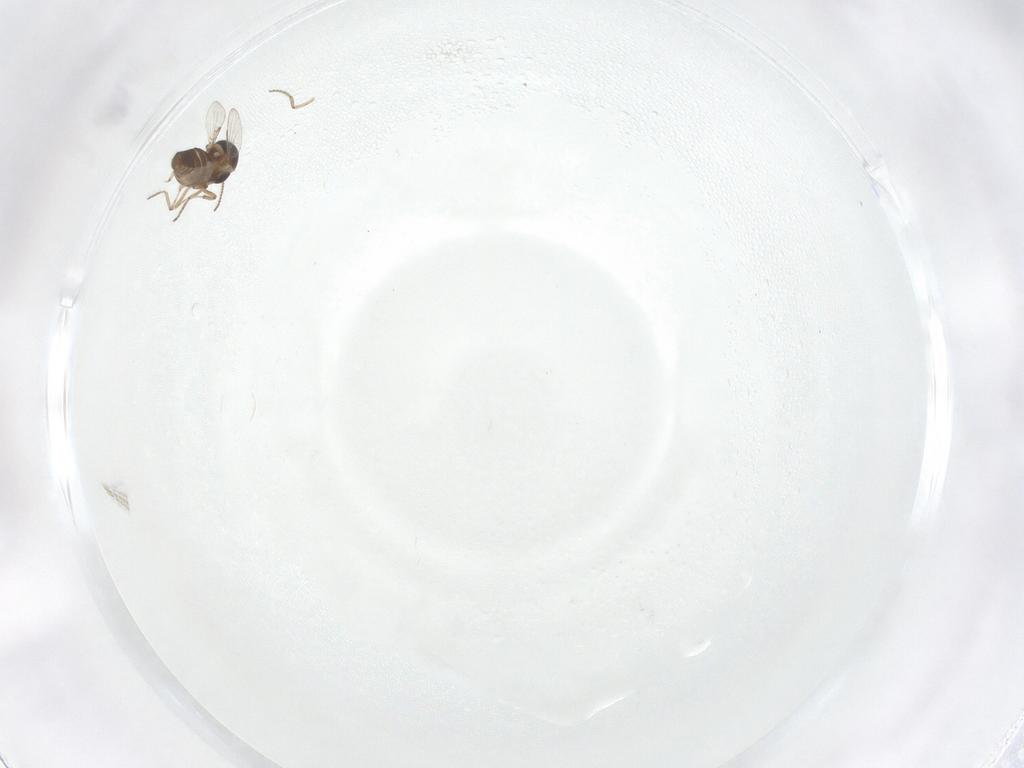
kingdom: Animalia
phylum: Arthropoda
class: Insecta
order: Diptera
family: Ceratopogonidae
